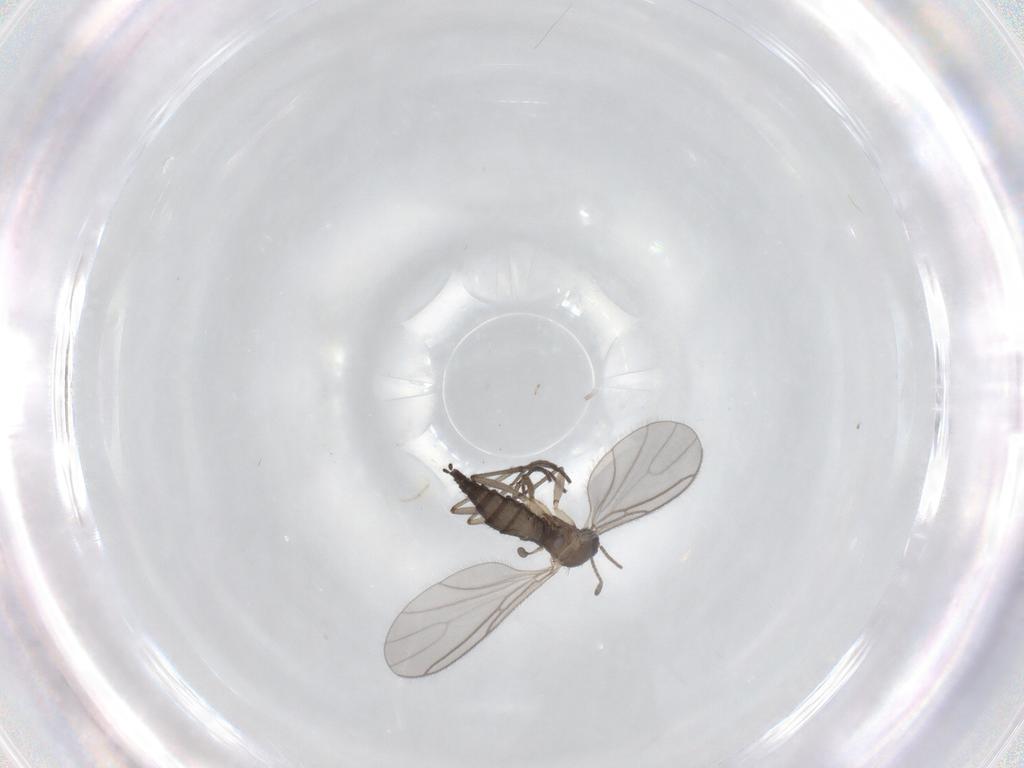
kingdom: Animalia
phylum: Arthropoda
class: Insecta
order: Diptera
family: Sciaridae
